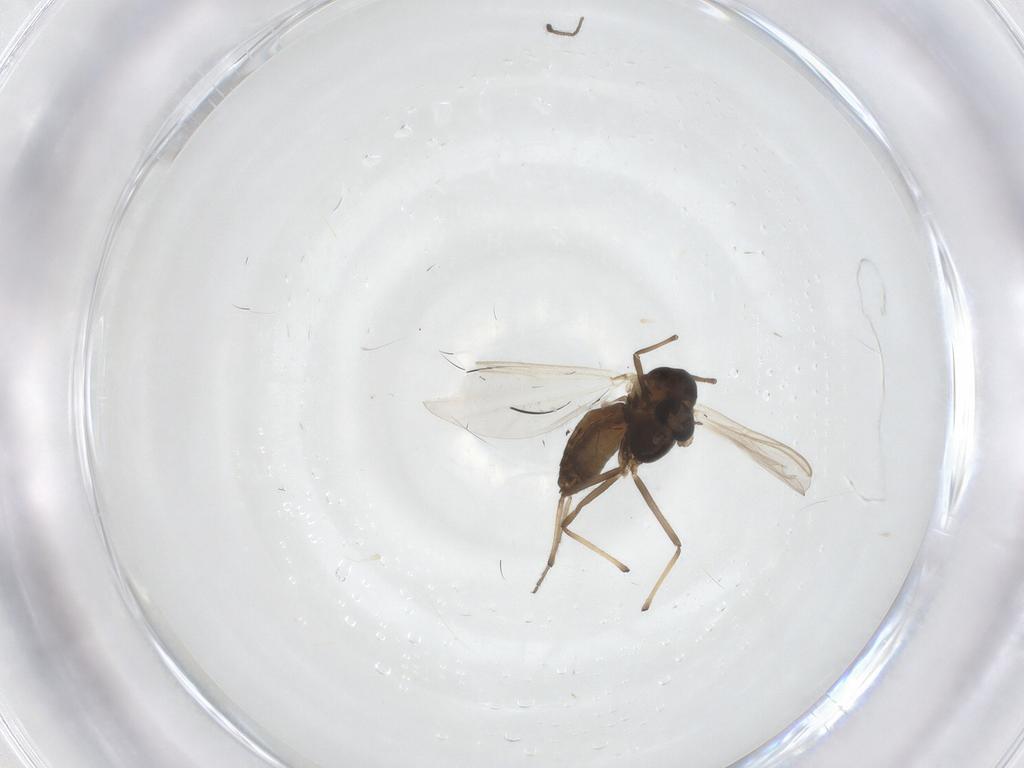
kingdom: Animalia
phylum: Arthropoda
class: Insecta
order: Diptera
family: Chironomidae
